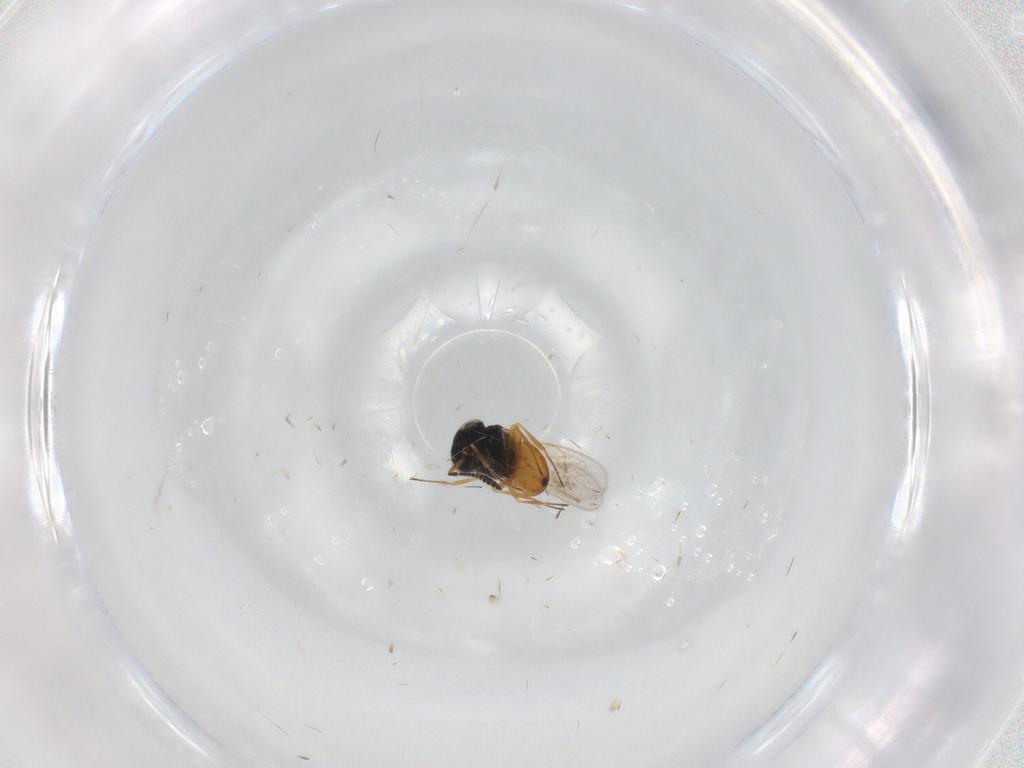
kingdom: Animalia
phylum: Arthropoda
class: Insecta
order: Hymenoptera
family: Scelionidae
